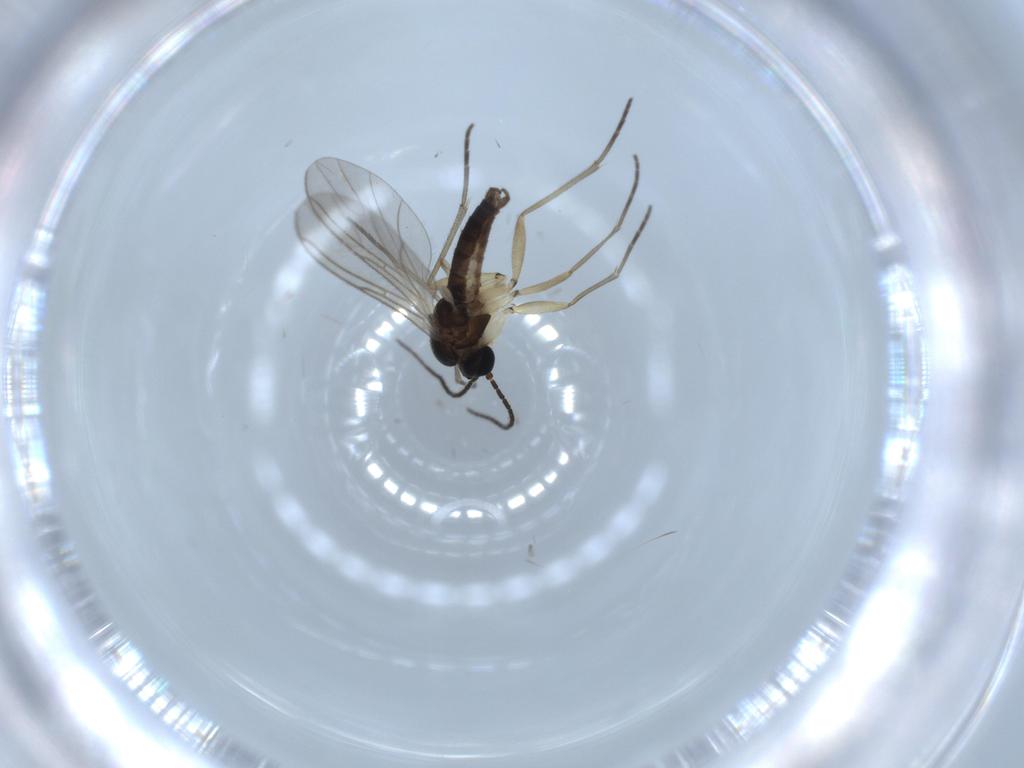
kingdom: Animalia
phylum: Arthropoda
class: Insecta
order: Diptera
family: Sciaridae
